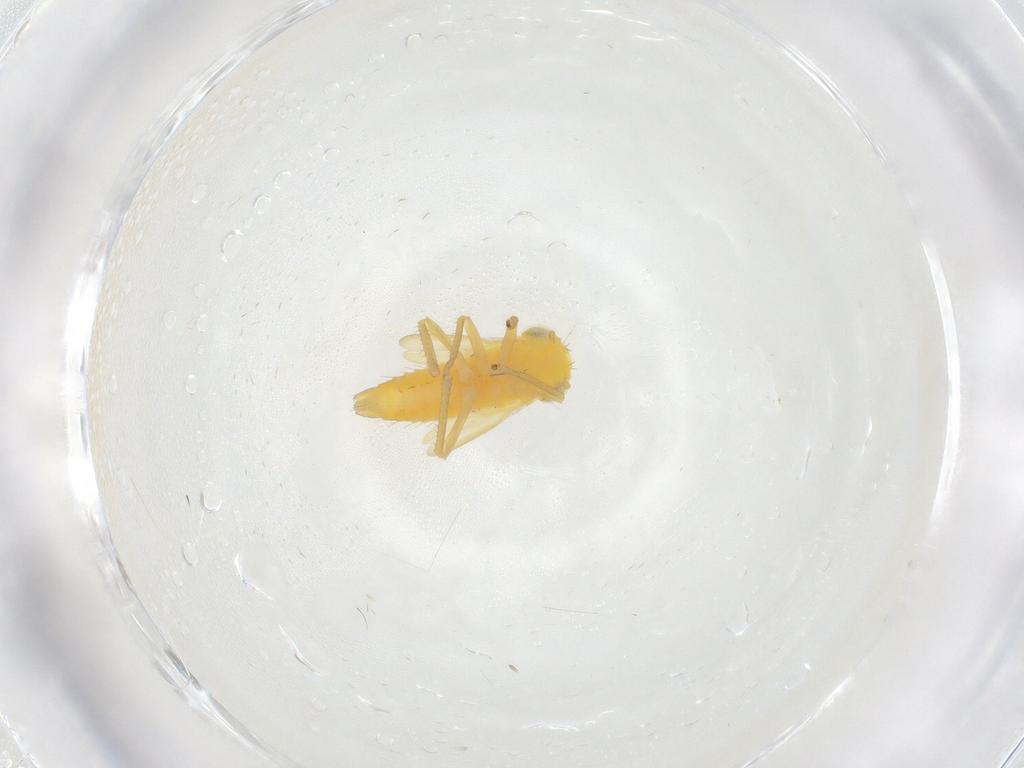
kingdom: Animalia
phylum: Arthropoda
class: Insecta
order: Hemiptera
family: Cicadellidae
